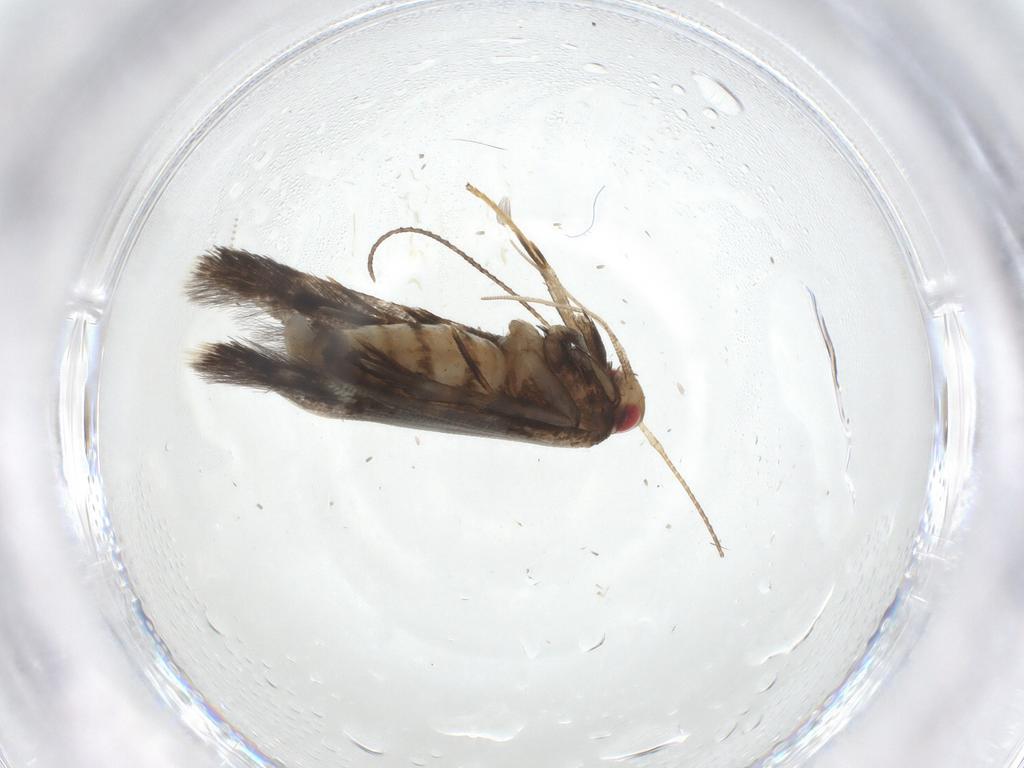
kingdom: Animalia
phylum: Arthropoda
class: Insecta
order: Lepidoptera
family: Gelechiidae
